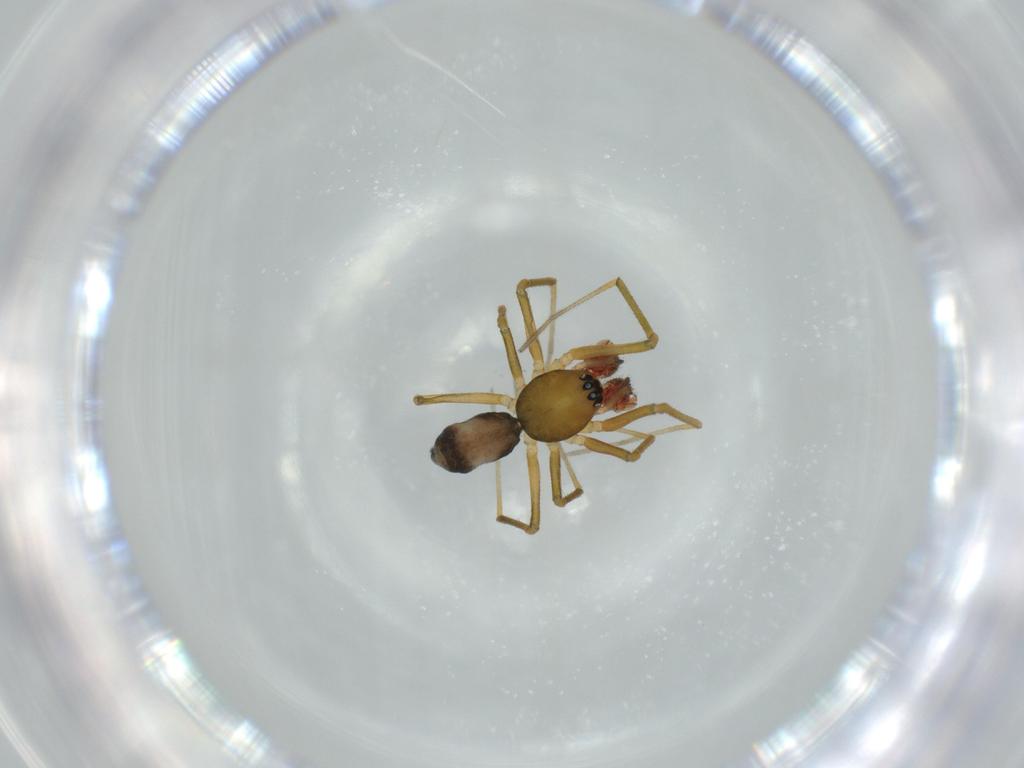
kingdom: Animalia
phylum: Arthropoda
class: Arachnida
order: Araneae
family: Linyphiidae
